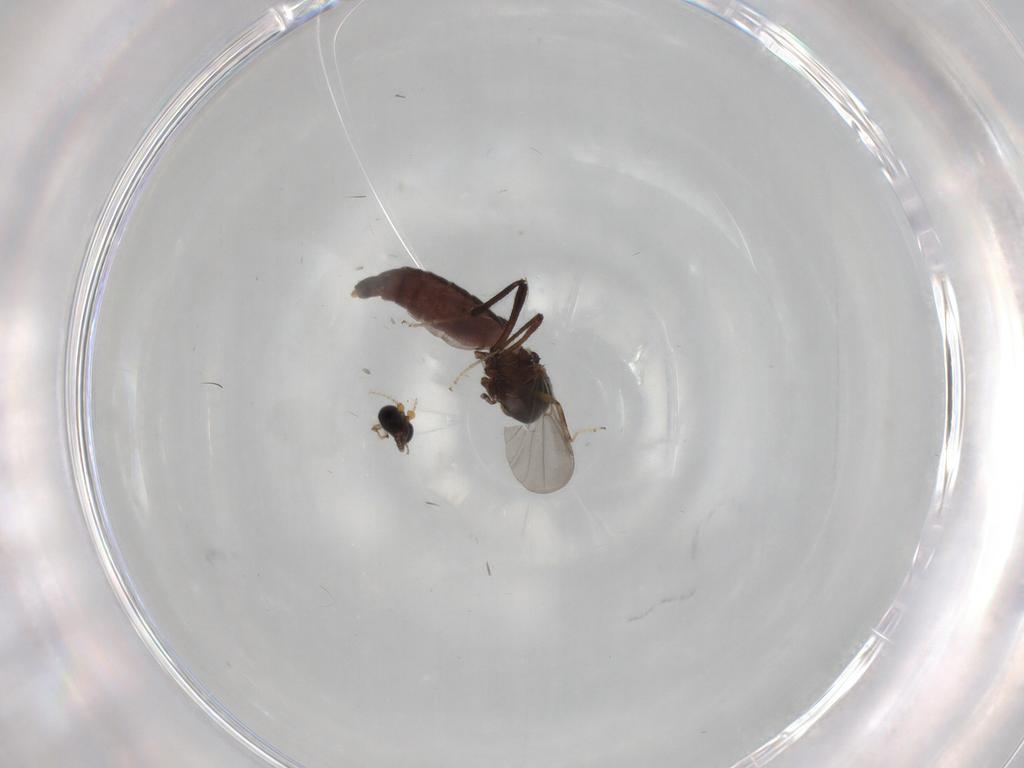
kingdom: Animalia
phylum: Arthropoda
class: Insecta
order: Diptera
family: Ceratopogonidae
